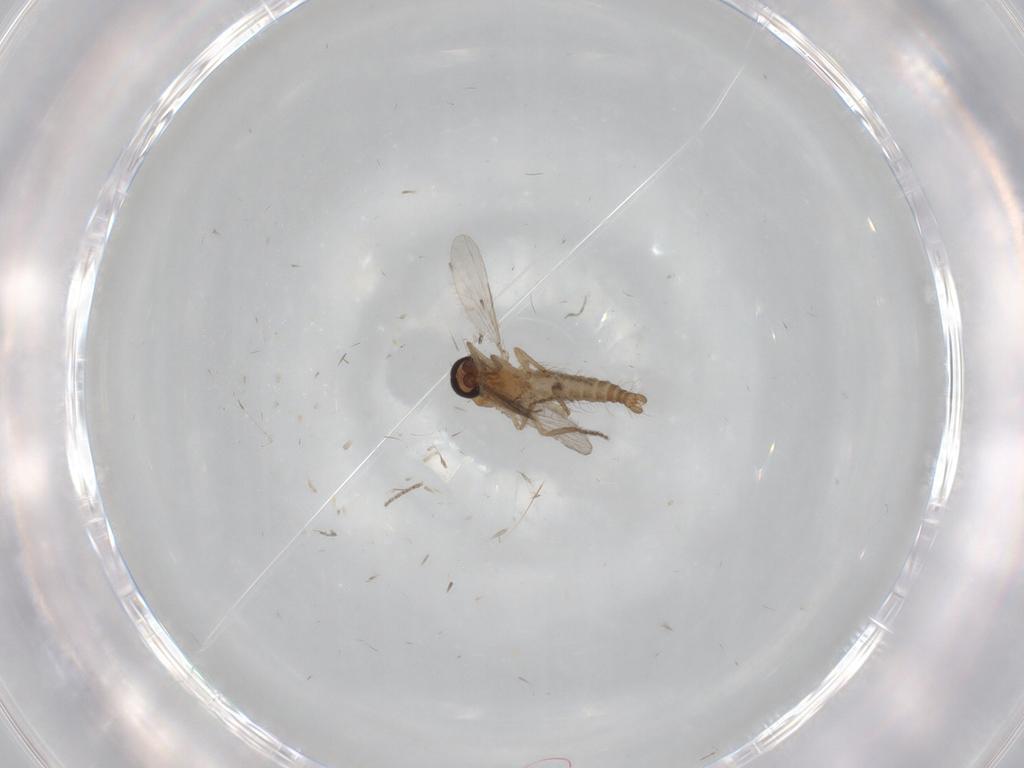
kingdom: Animalia
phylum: Arthropoda
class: Insecta
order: Diptera
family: Ceratopogonidae
